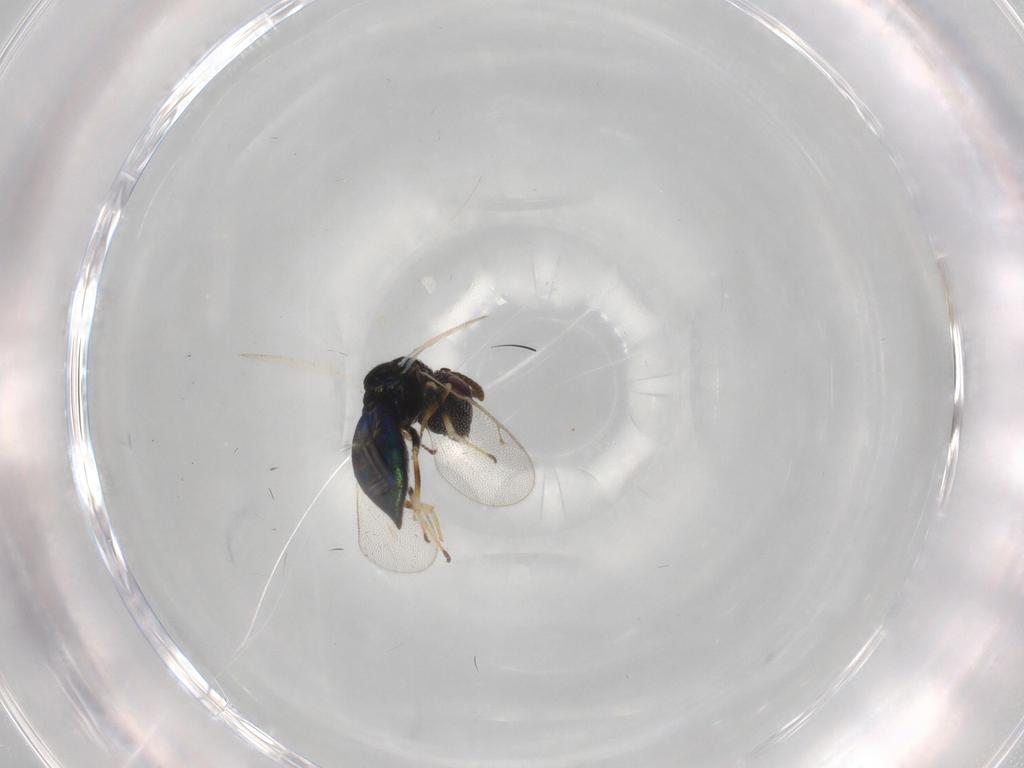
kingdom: Animalia
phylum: Arthropoda
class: Insecta
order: Hymenoptera
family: Pteromalidae
